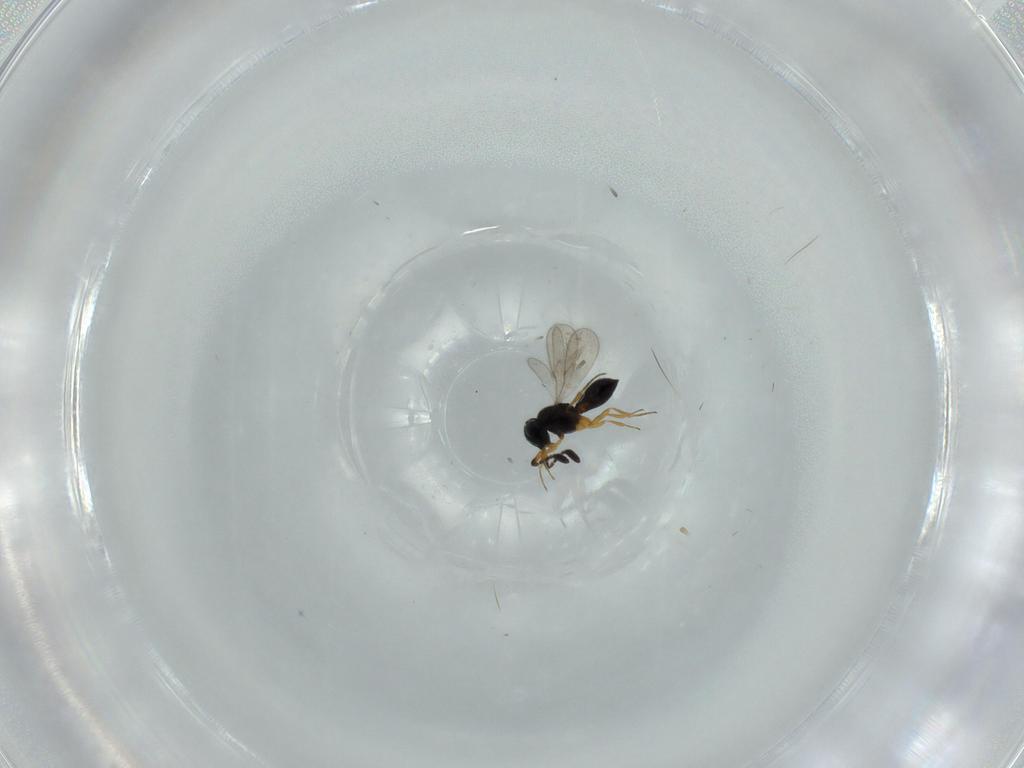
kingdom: Animalia
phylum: Arthropoda
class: Insecta
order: Hymenoptera
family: Scelionidae
